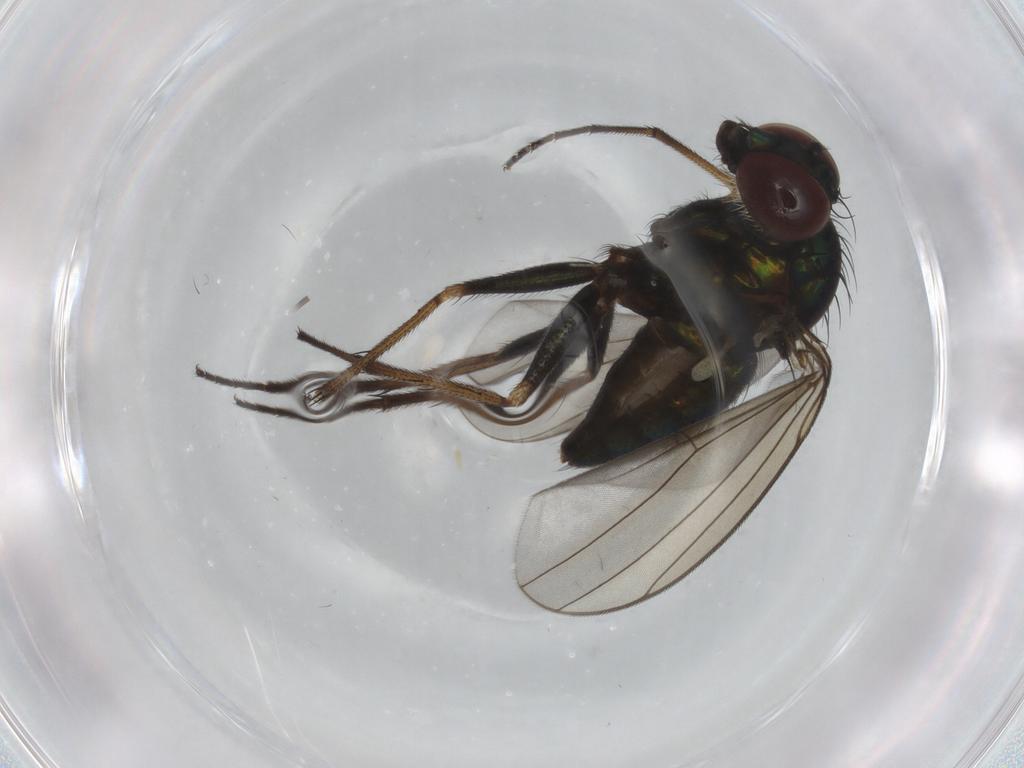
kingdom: Animalia
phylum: Arthropoda
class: Insecta
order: Diptera
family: Dolichopodidae
